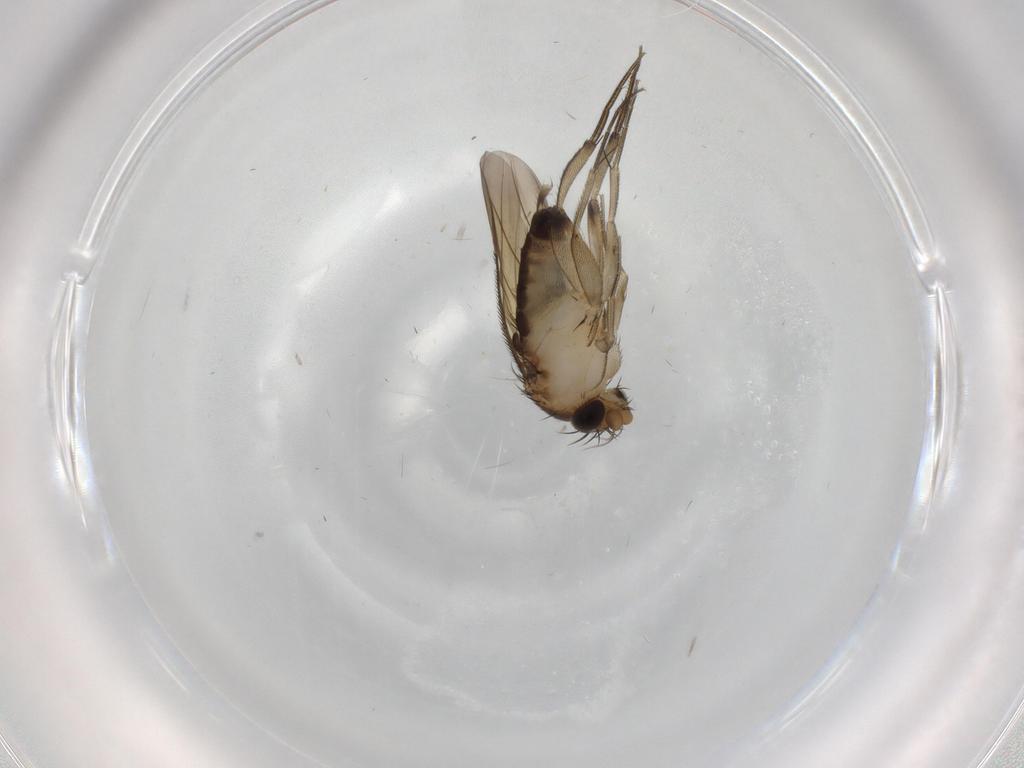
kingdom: Animalia
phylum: Arthropoda
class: Insecta
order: Diptera
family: Phoridae
